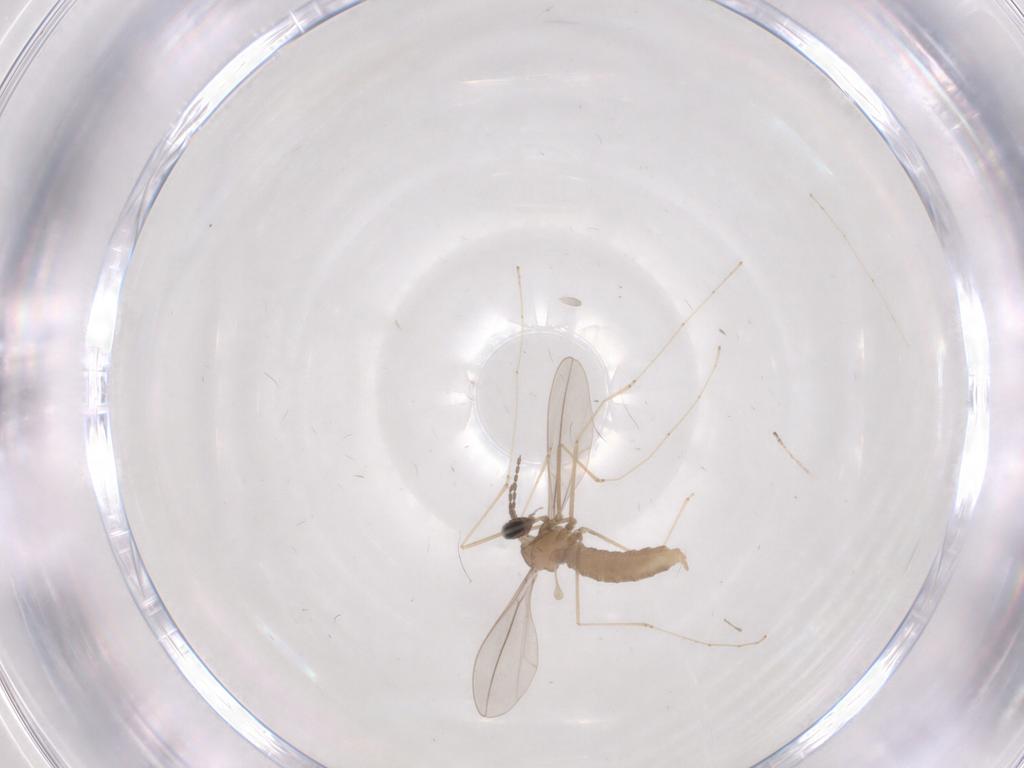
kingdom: Animalia
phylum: Arthropoda
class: Insecta
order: Diptera
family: Cecidomyiidae
